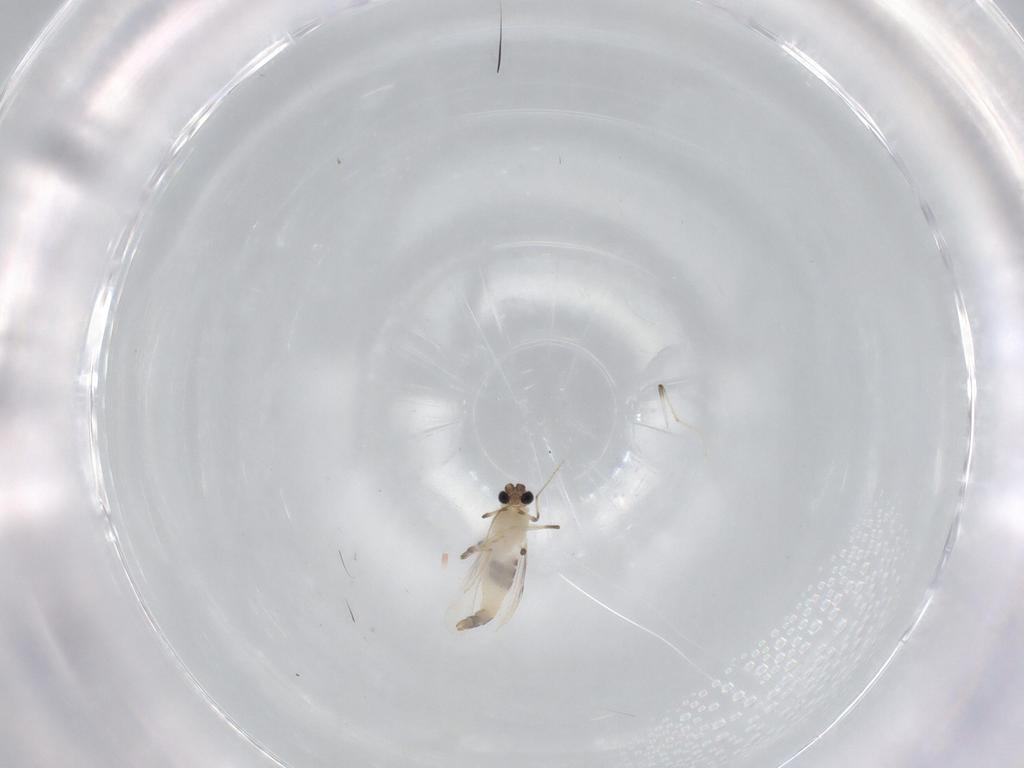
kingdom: Animalia
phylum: Arthropoda
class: Insecta
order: Diptera
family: Chironomidae
